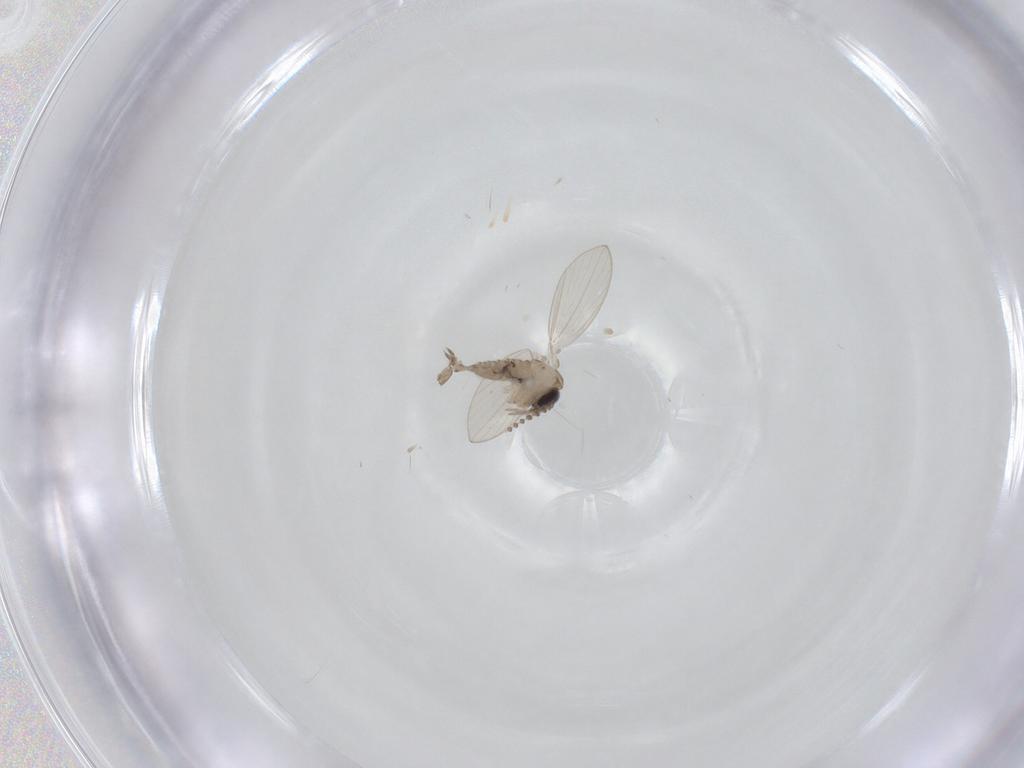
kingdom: Animalia
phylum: Arthropoda
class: Insecta
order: Diptera
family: Psychodidae
